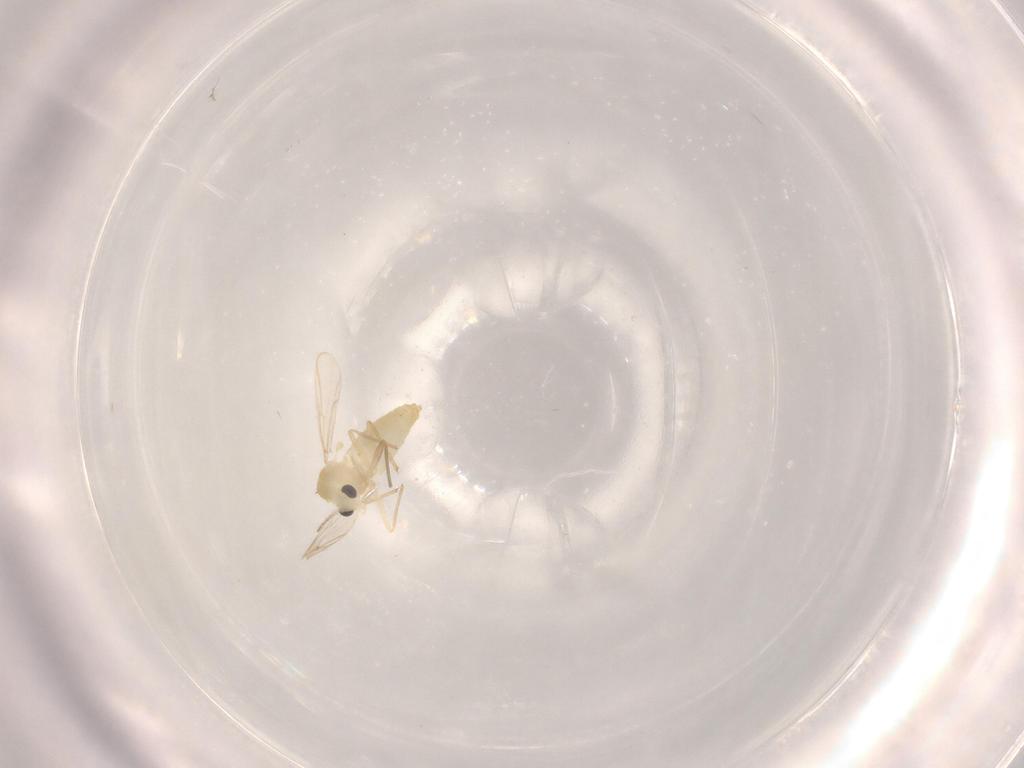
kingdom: Animalia
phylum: Arthropoda
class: Insecta
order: Diptera
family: Chironomidae
